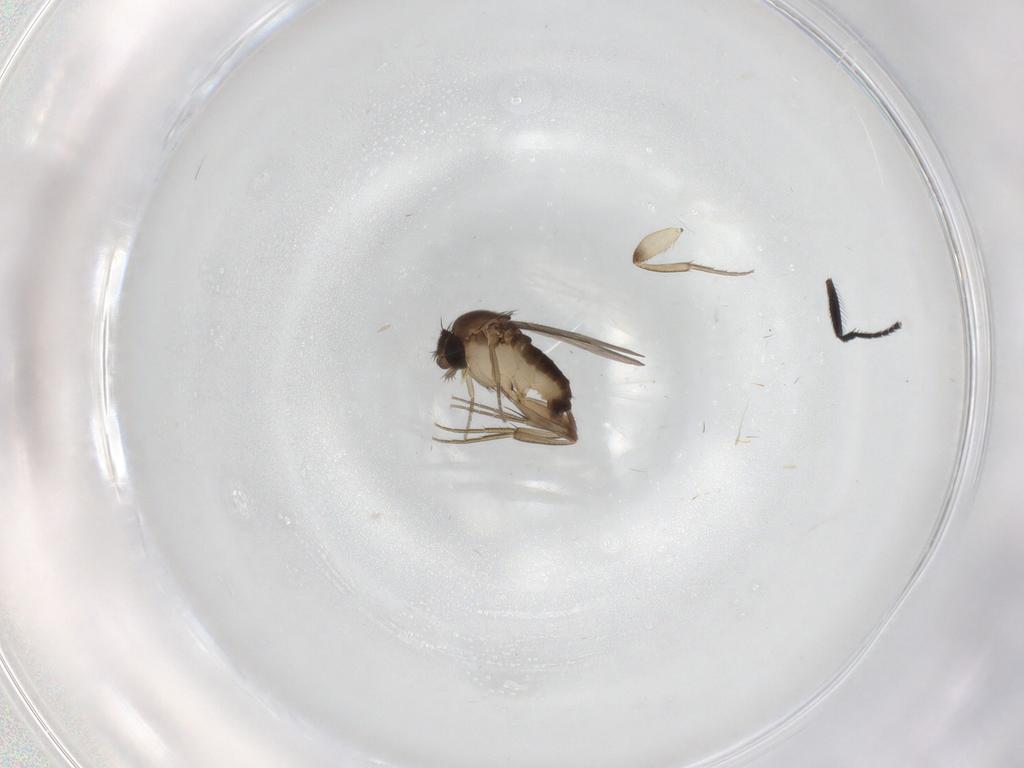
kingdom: Animalia
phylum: Arthropoda
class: Insecta
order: Diptera
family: Phoridae
